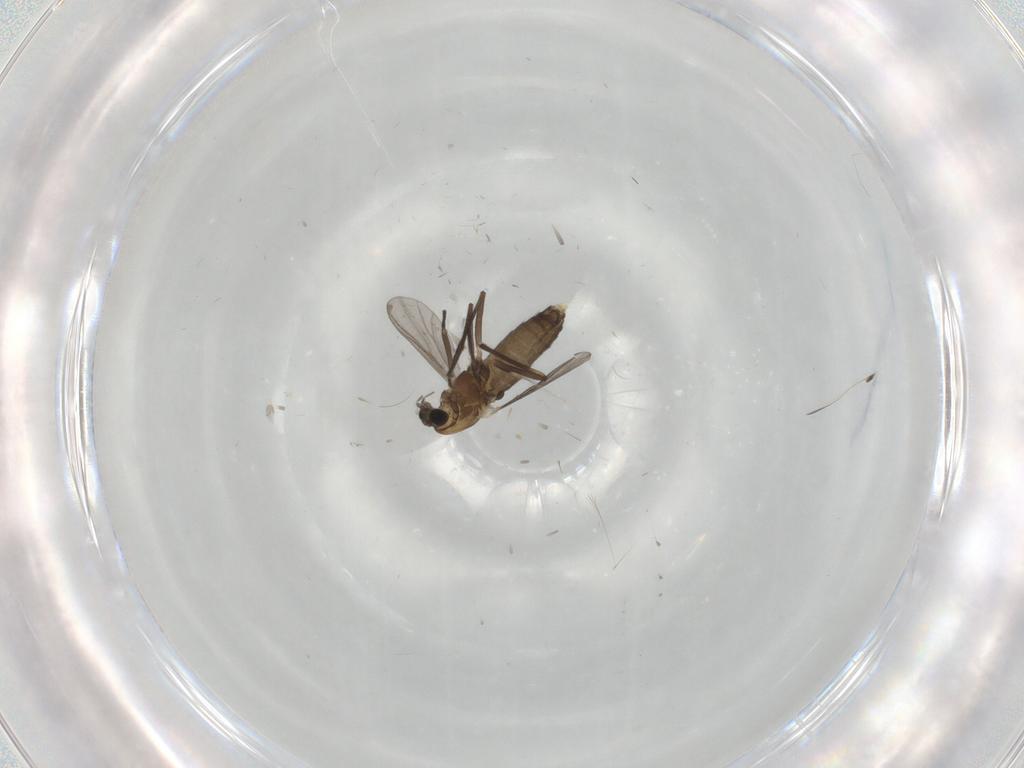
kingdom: Animalia
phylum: Arthropoda
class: Insecta
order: Diptera
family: Chironomidae
